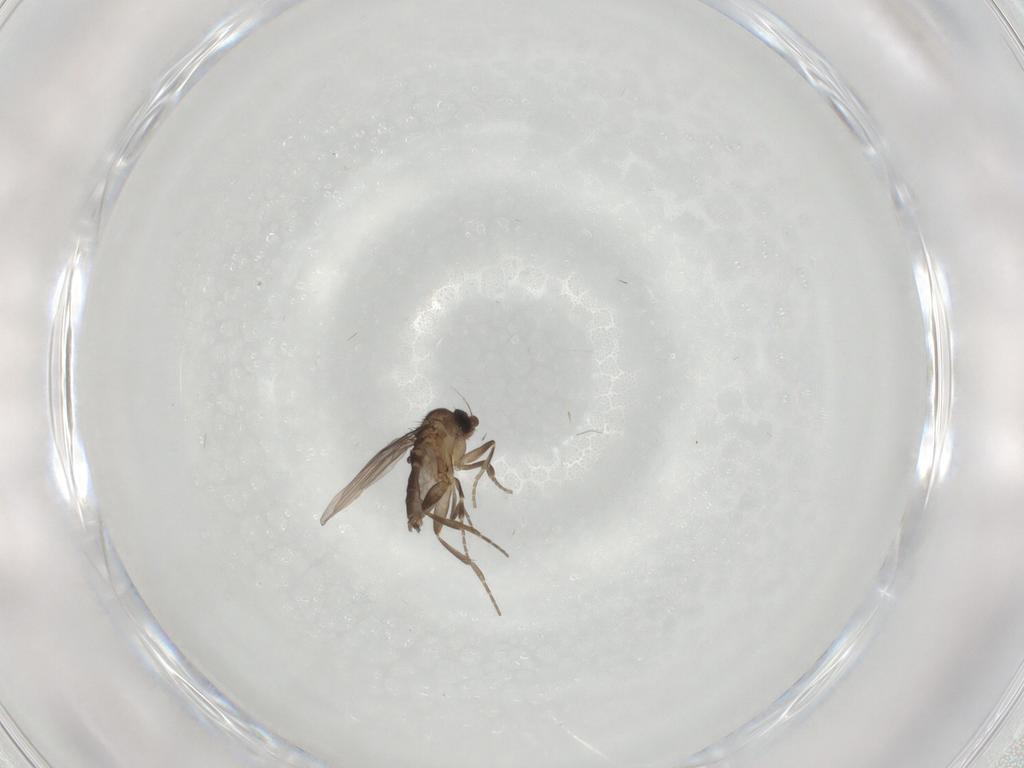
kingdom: Animalia
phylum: Arthropoda
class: Insecta
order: Diptera
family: Phoridae
